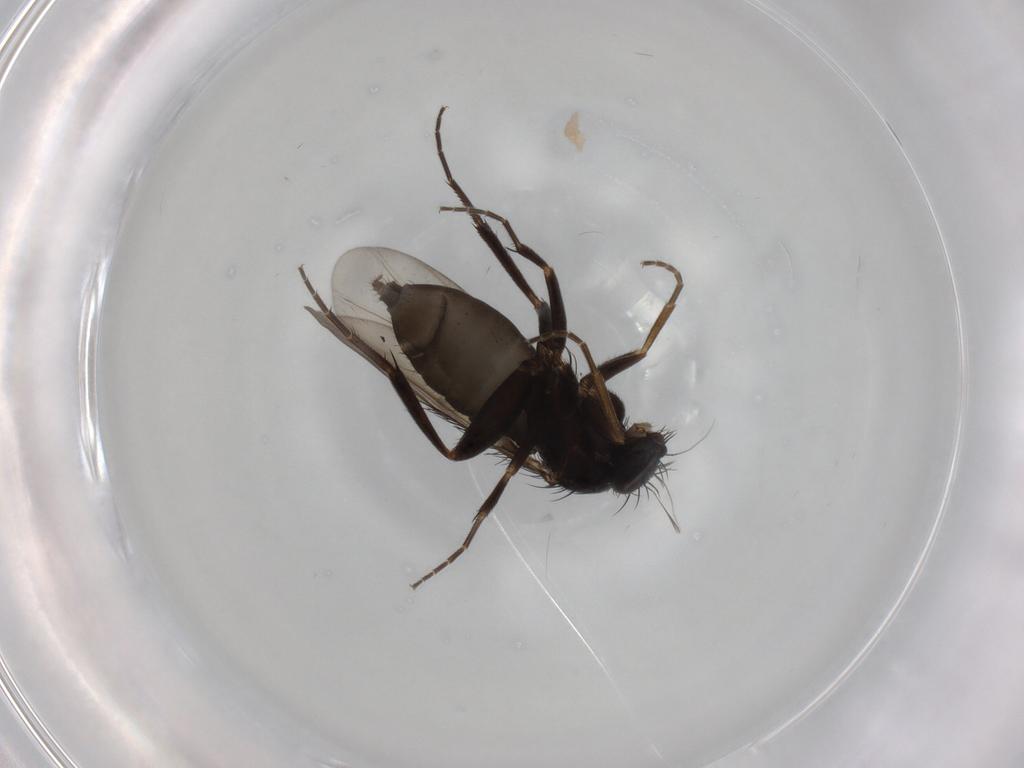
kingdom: Animalia
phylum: Arthropoda
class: Insecta
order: Diptera
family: Phoridae
